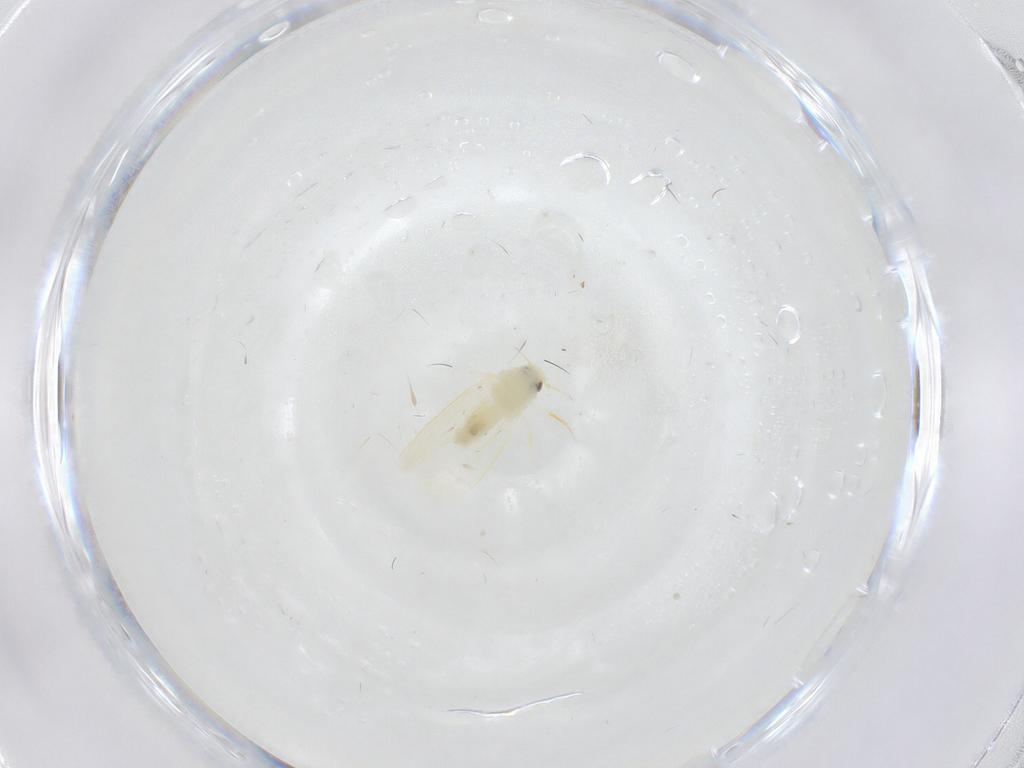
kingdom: Animalia
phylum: Arthropoda
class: Insecta
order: Hemiptera
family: Aleyrodidae
